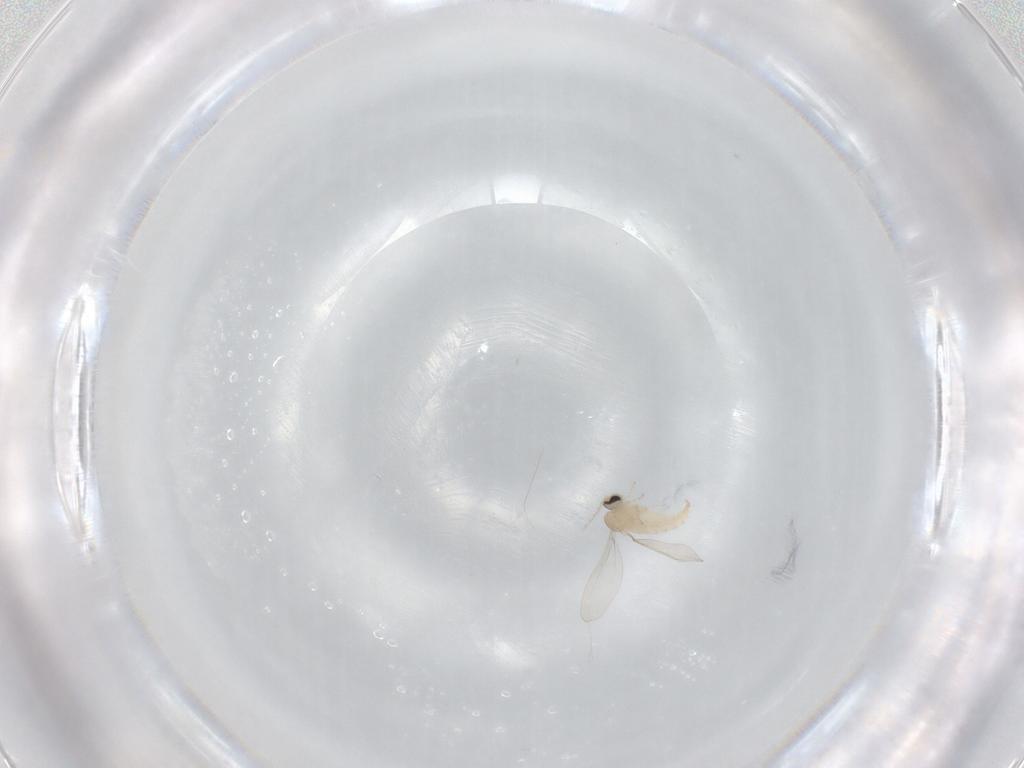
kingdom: Animalia
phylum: Arthropoda
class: Insecta
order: Diptera
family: Cecidomyiidae
